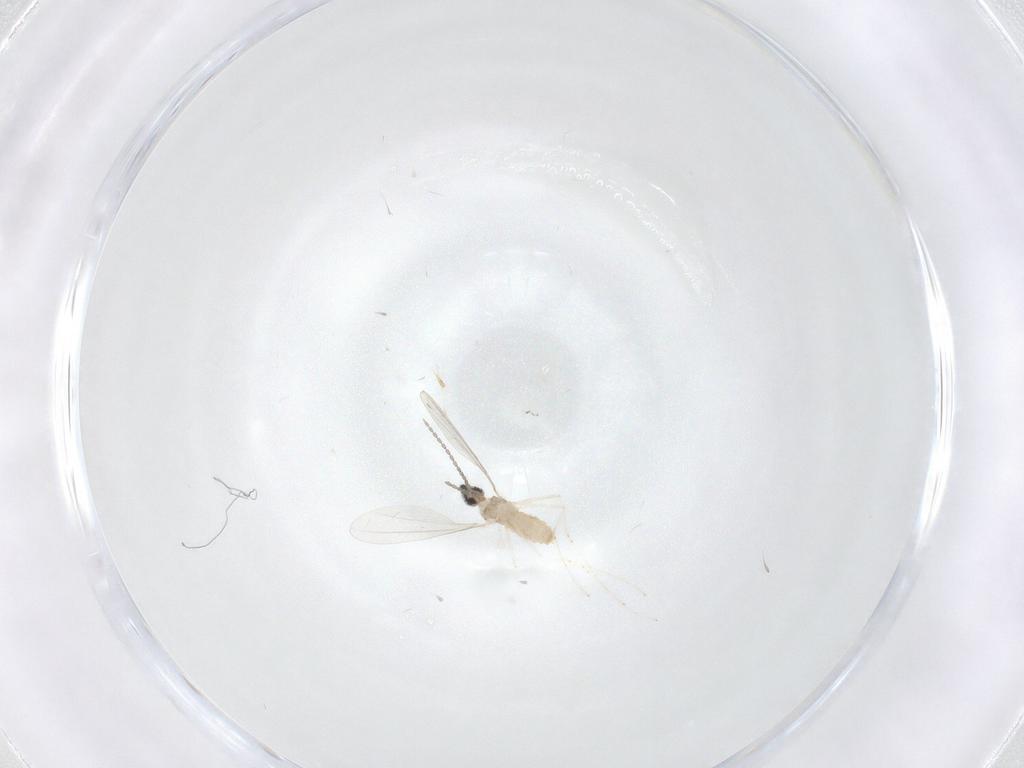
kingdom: Animalia
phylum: Arthropoda
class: Insecta
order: Diptera
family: Cecidomyiidae
